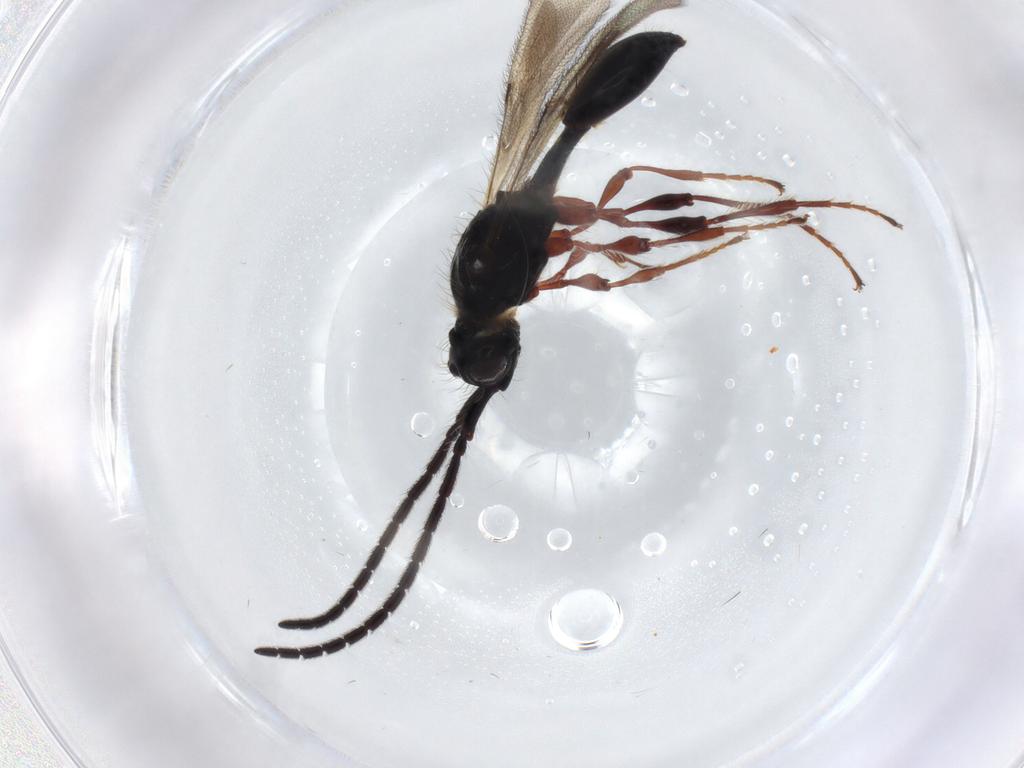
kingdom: Animalia
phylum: Arthropoda
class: Insecta
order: Hymenoptera
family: Diapriidae
